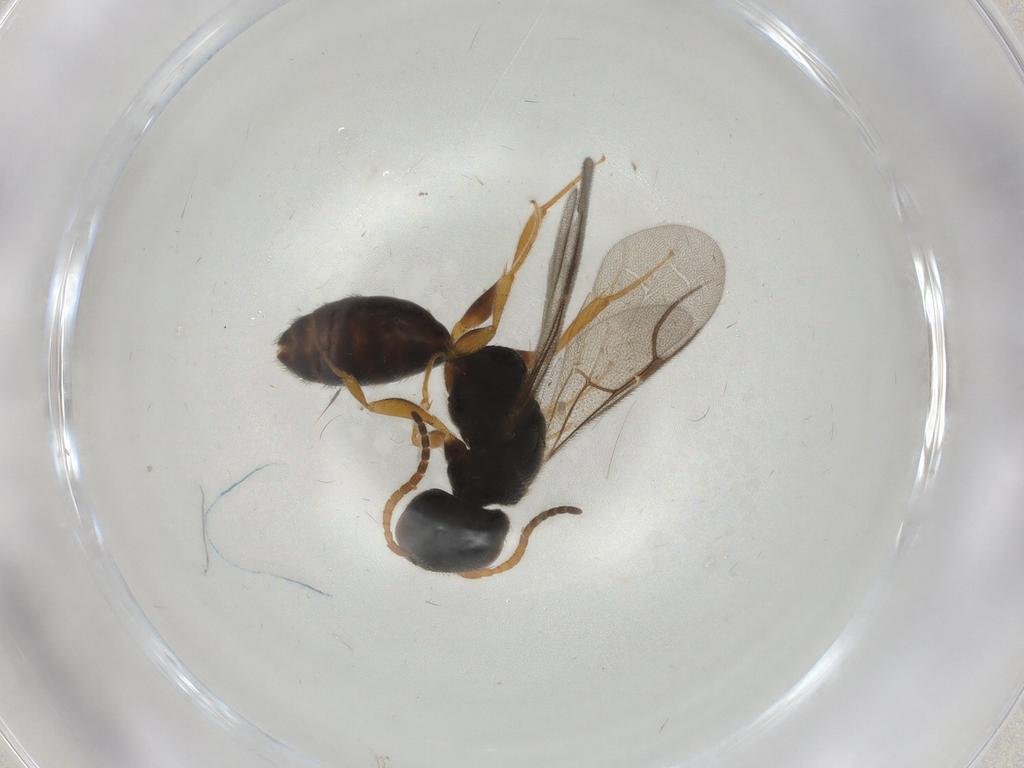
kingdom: Animalia
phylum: Arthropoda
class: Insecta
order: Hymenoptera
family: Bethylidae
